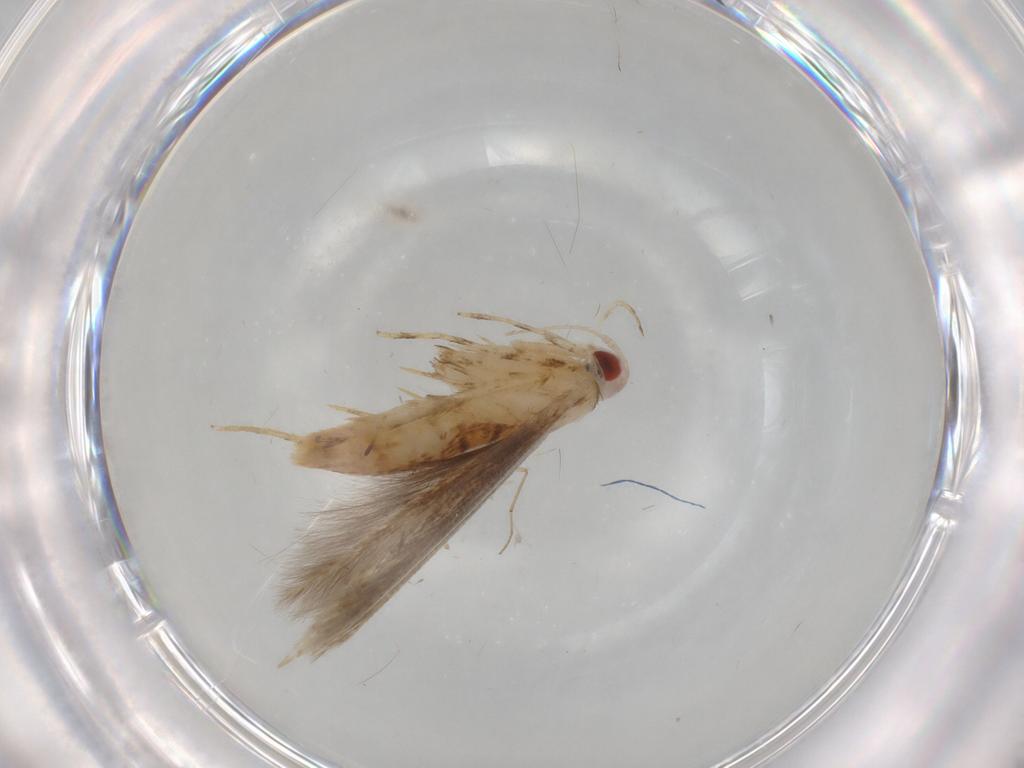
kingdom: Animalia
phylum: Arthropoda
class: Insecta
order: Lepidoptera
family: Cosmopterigidae
